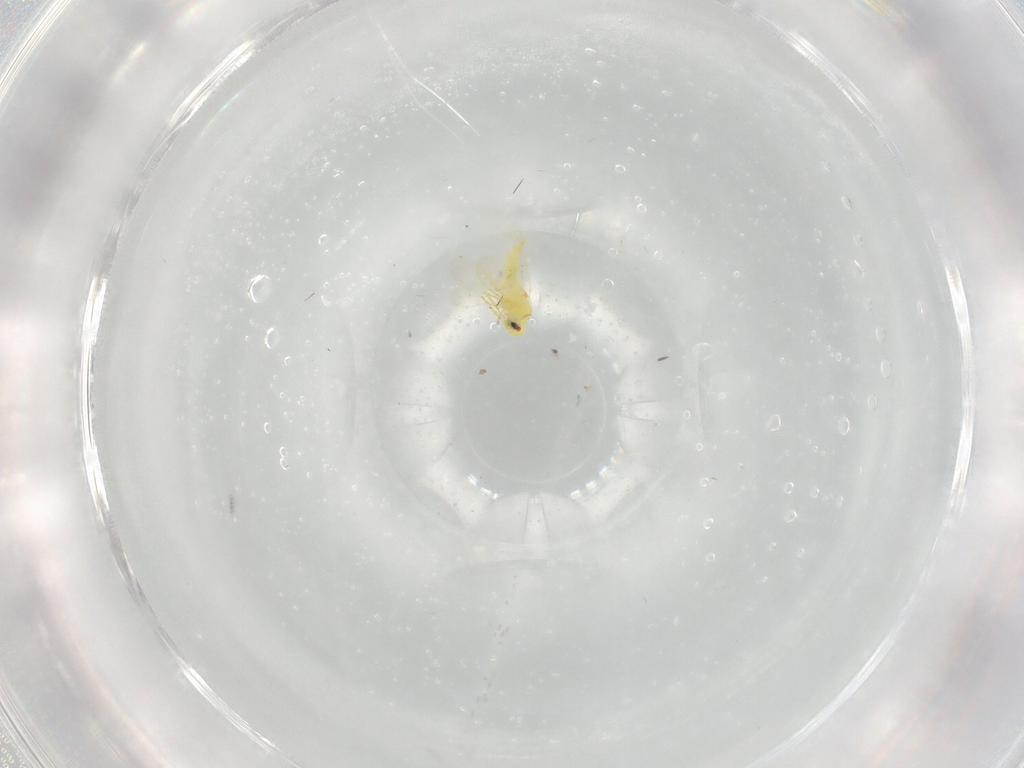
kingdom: Animalia
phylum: Arthropoda
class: Insecta
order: Hemiptera
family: Aleyrodidae
